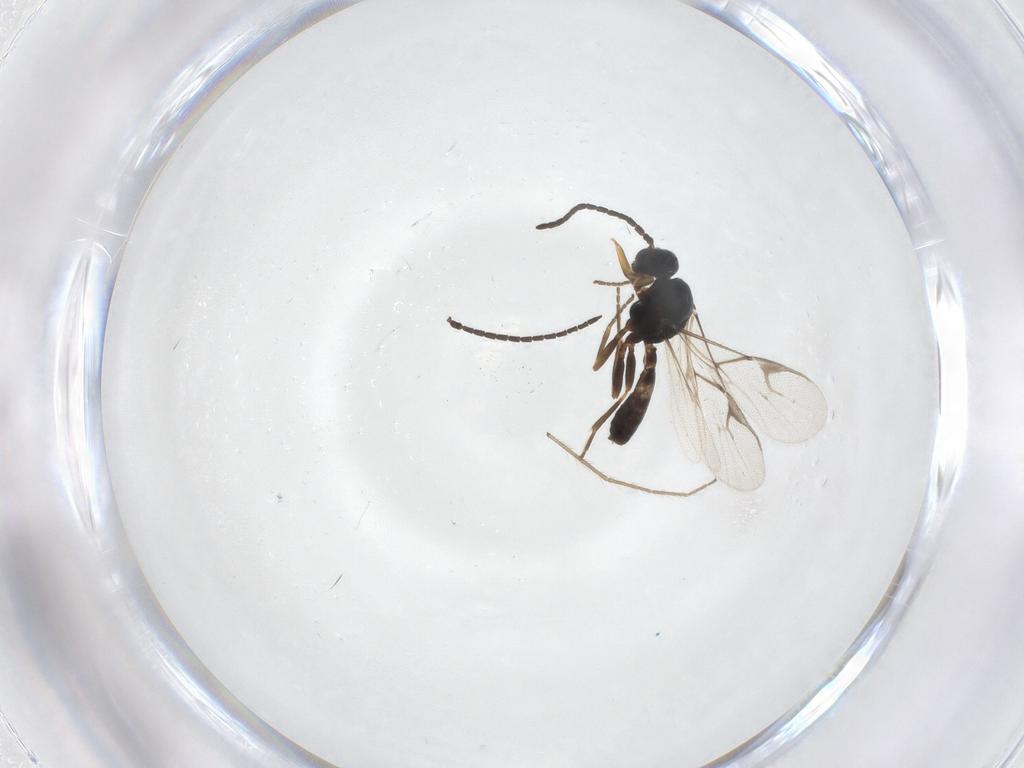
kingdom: Animalia
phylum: Arthropoda
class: Insecta
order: Hymenoptera
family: Braconidae
